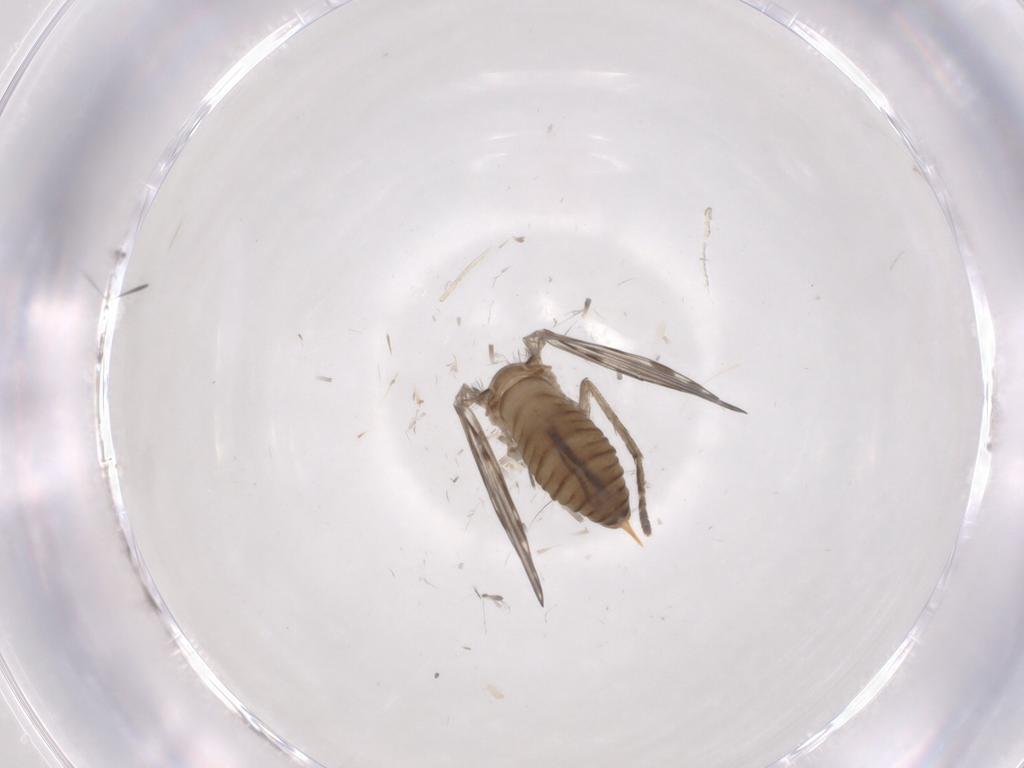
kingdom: Animalia
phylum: Arthropoda
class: Insecta
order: Diptera
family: Psychodidae
